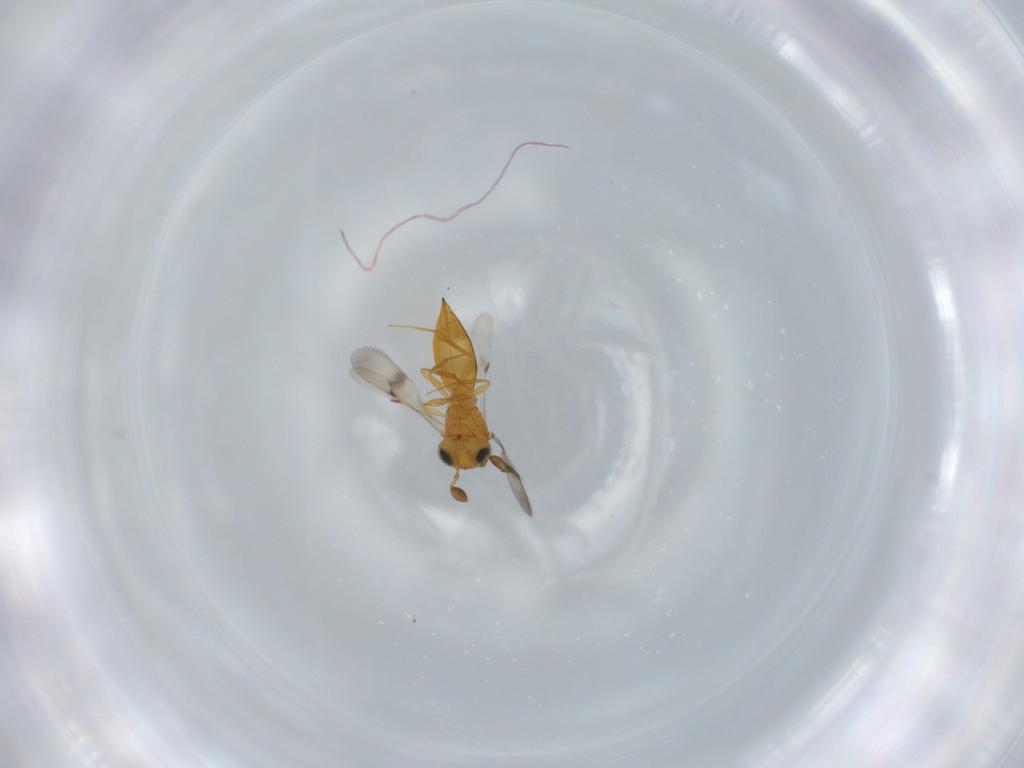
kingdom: Animalia
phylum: Arthropoda
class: Insecta
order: Hymenoptera
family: Scelionidae
